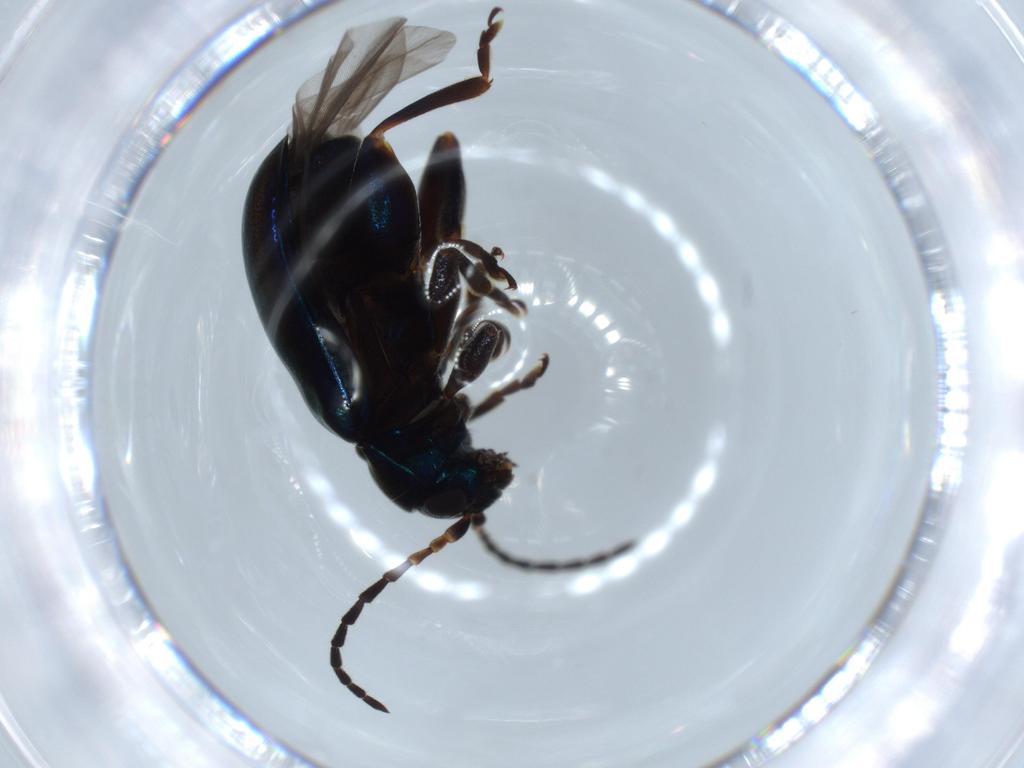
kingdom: Animalia
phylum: Arthropoda
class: Insecta
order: Coleoptera
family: Chrysomelidae
